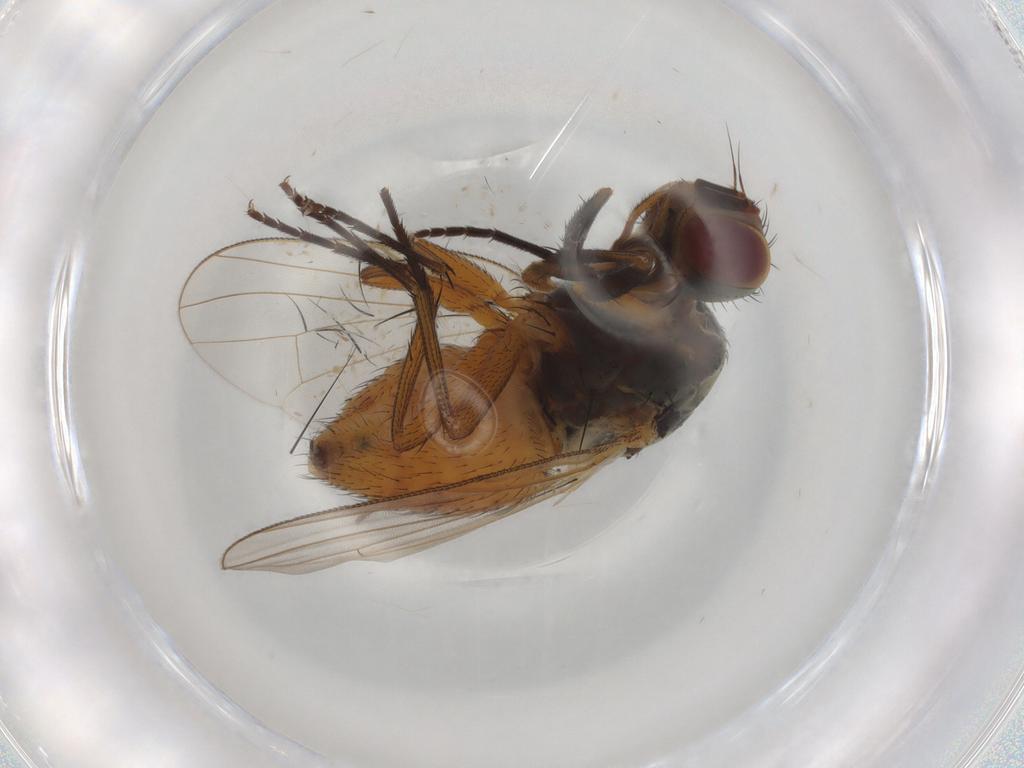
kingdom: Animalia
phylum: Arthropoda
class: Insecta
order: Diptera
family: Muscidae
